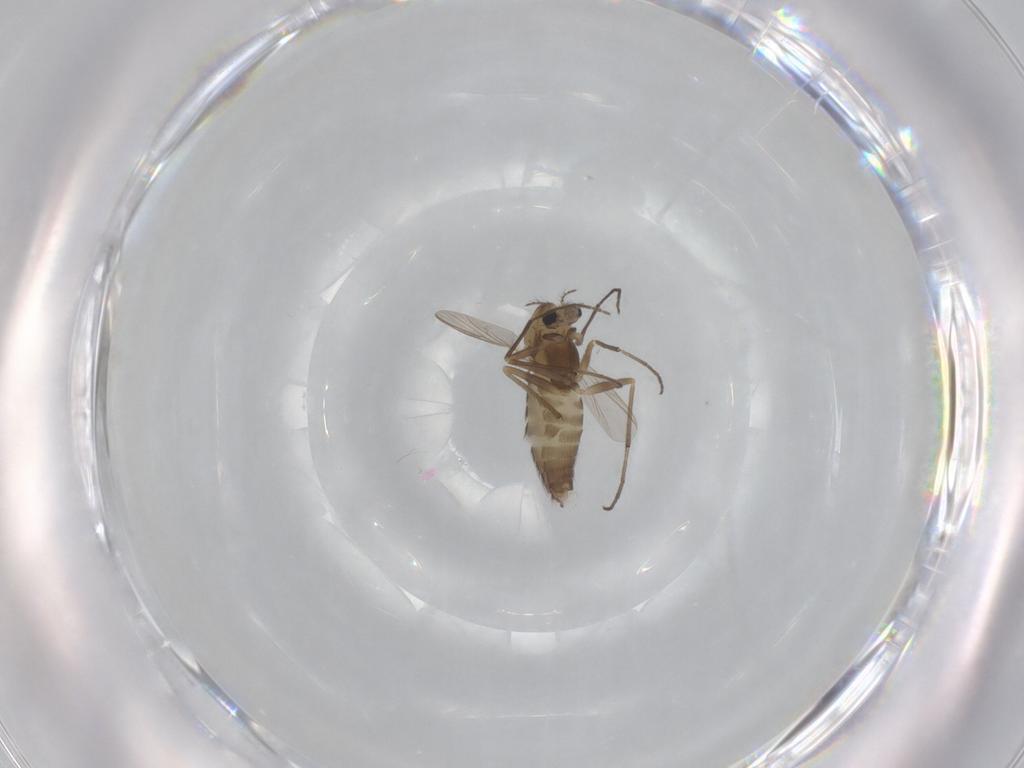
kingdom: Animalia
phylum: Arthropoda
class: Insecta
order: Diptera
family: Chironomidae
